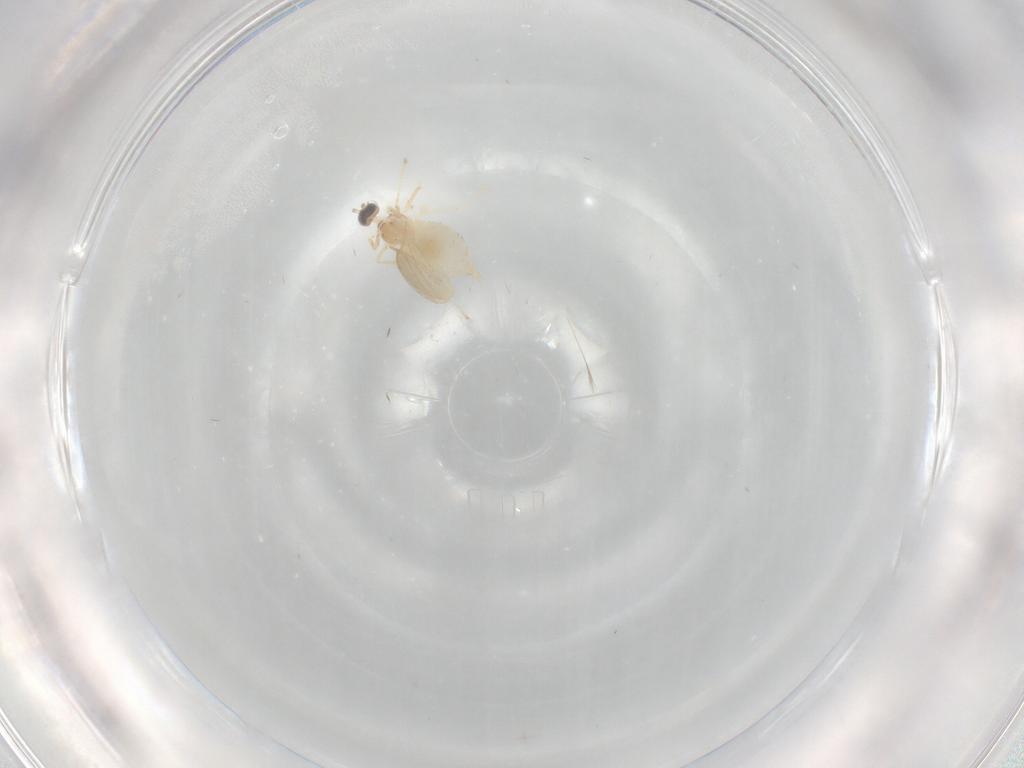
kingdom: Animalia
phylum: Arthropoda
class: Insecta
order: Diptera
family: Cecidomyiidae
